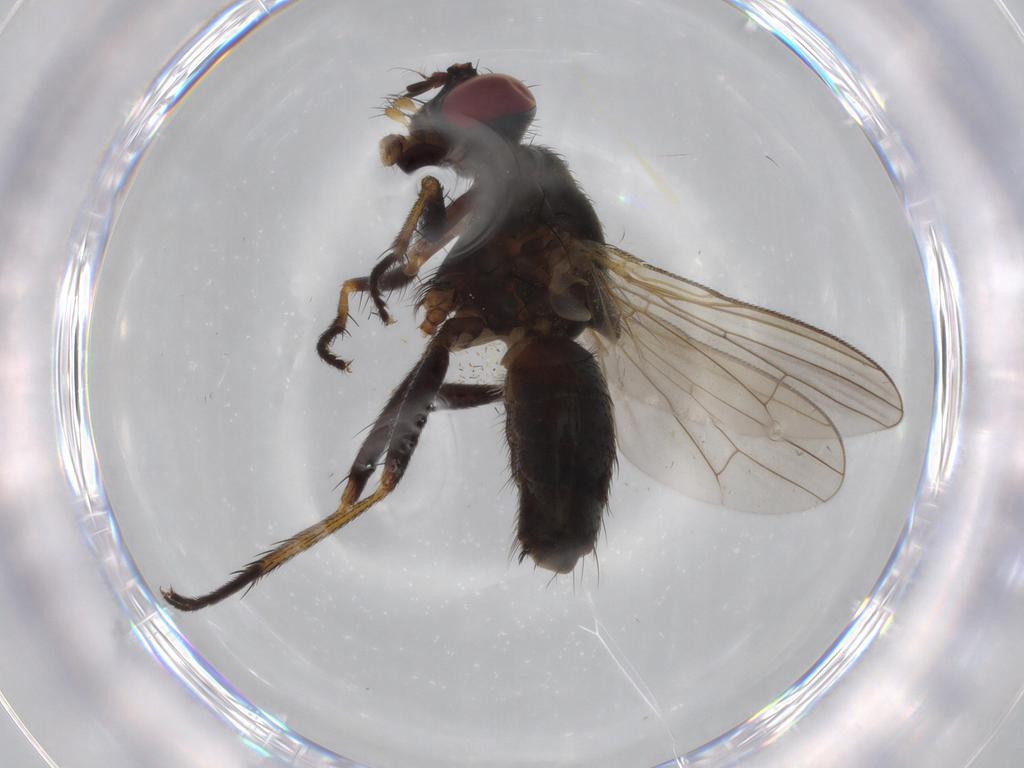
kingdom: Animalia
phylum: Arthropoda
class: Insecta
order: Diptera
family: Muscidae
